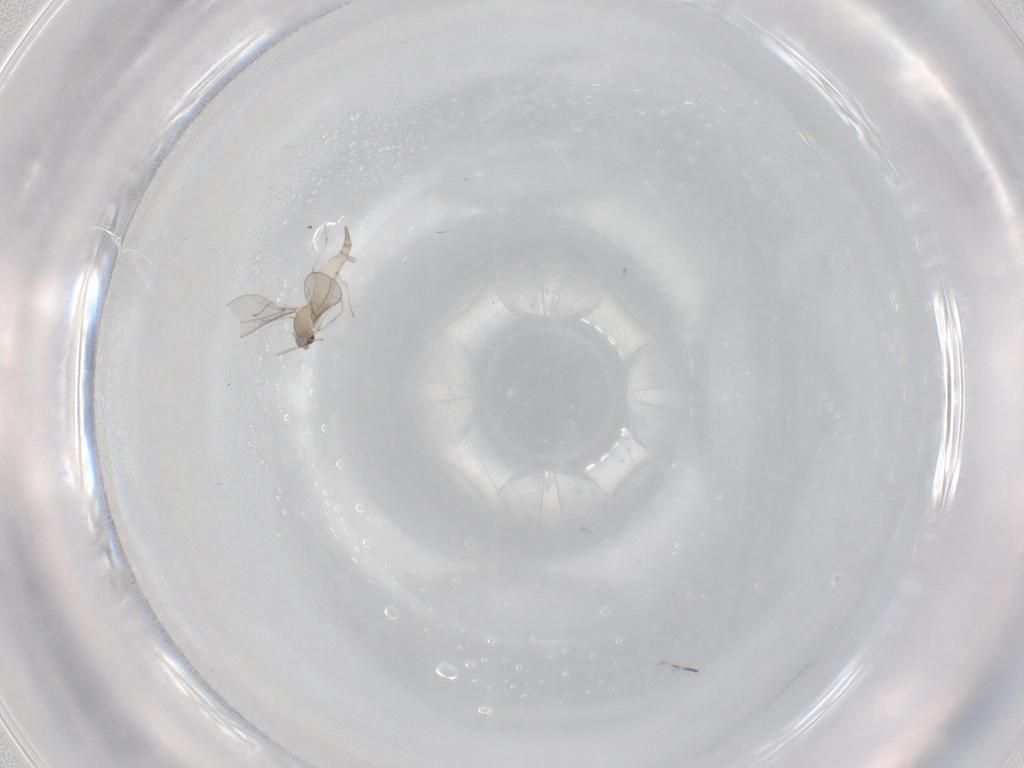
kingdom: Animalia
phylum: Arthropoda
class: Insecta
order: Diptera
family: Cecidomyiidae
